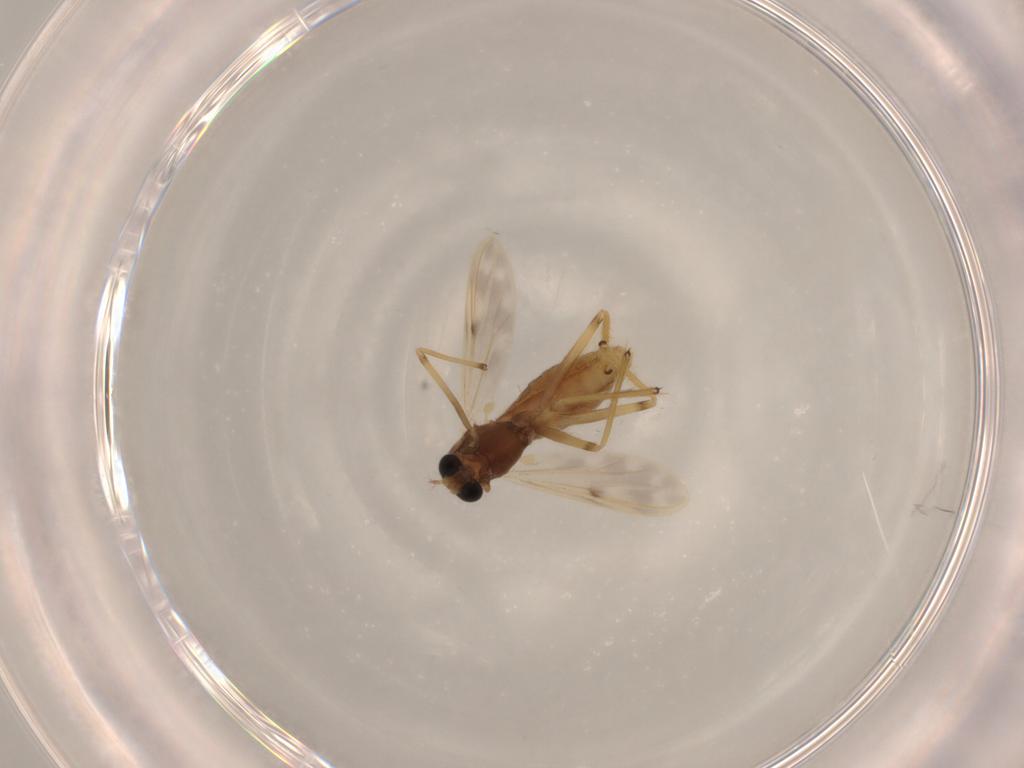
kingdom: Animalia
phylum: Arthropoda
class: Insecta
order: Diptera
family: Chironomidae
